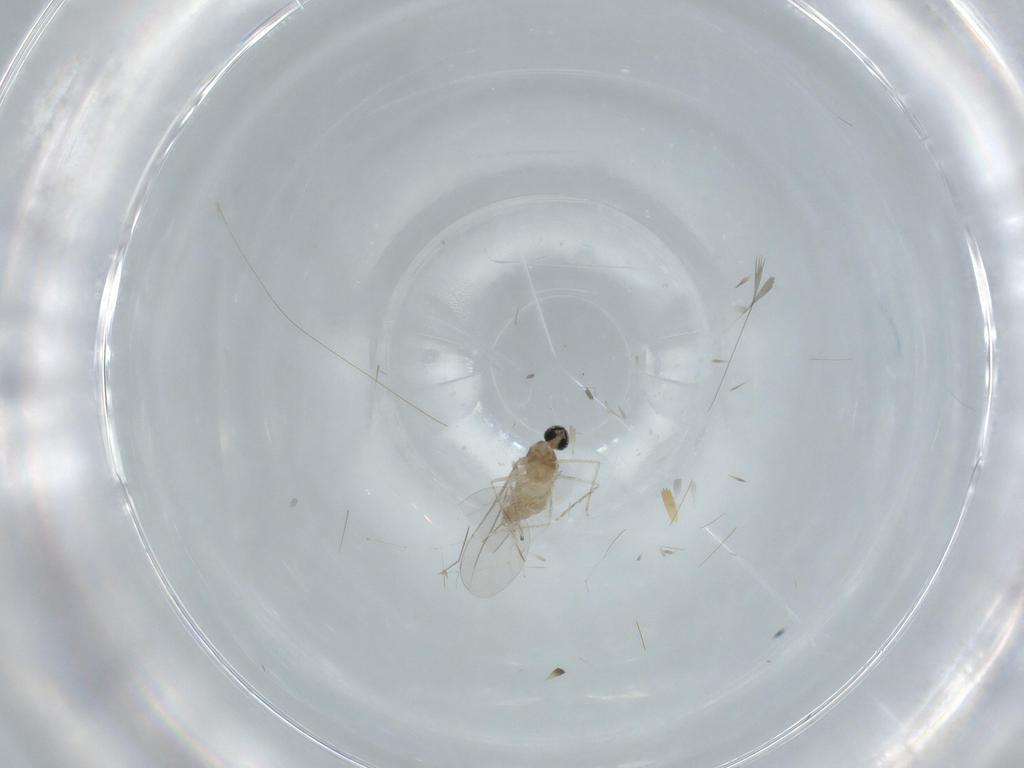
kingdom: Animalia
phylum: Arthropoda
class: Insecta
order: Diptera
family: Cecidomyiidae
